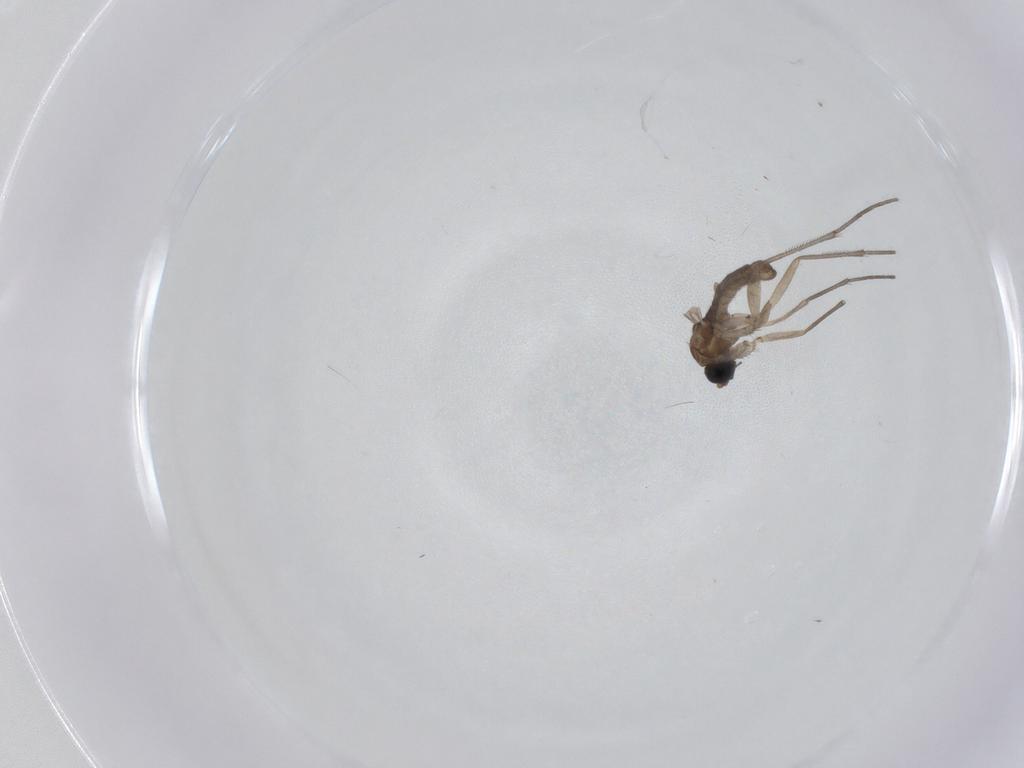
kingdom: Animalia
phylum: Arthropoda
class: Insecta
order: Diptera
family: Sciaridae
